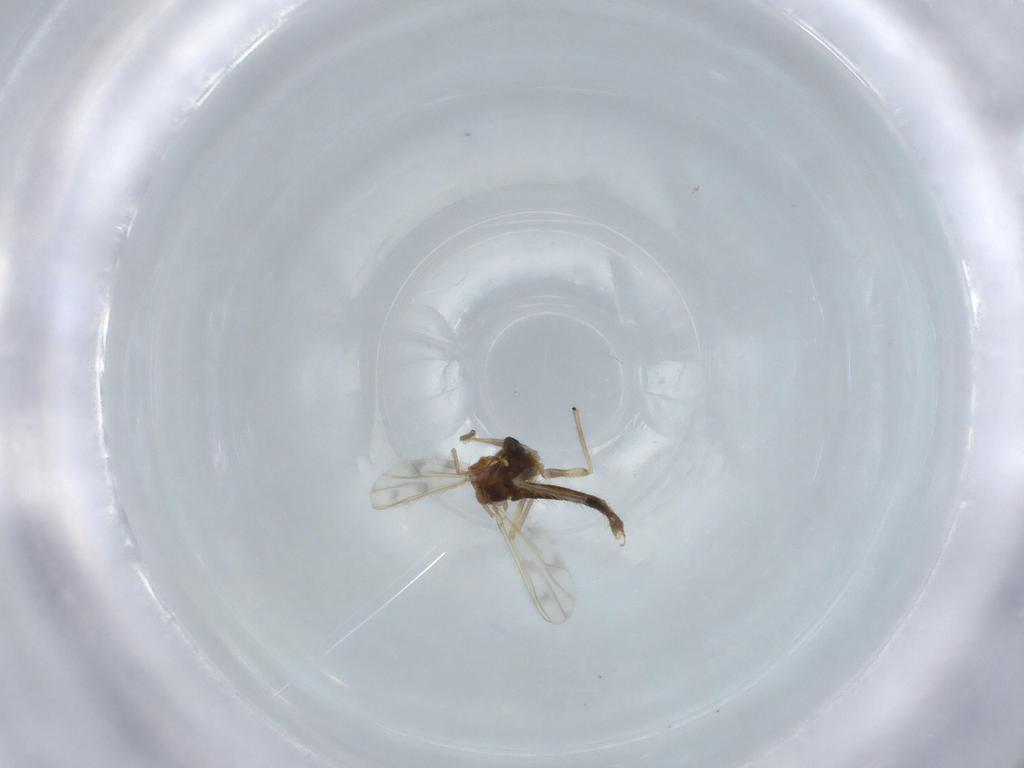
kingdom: Animalia
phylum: Arthropoda
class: Insecta
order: Diptera
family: Chironomidae
